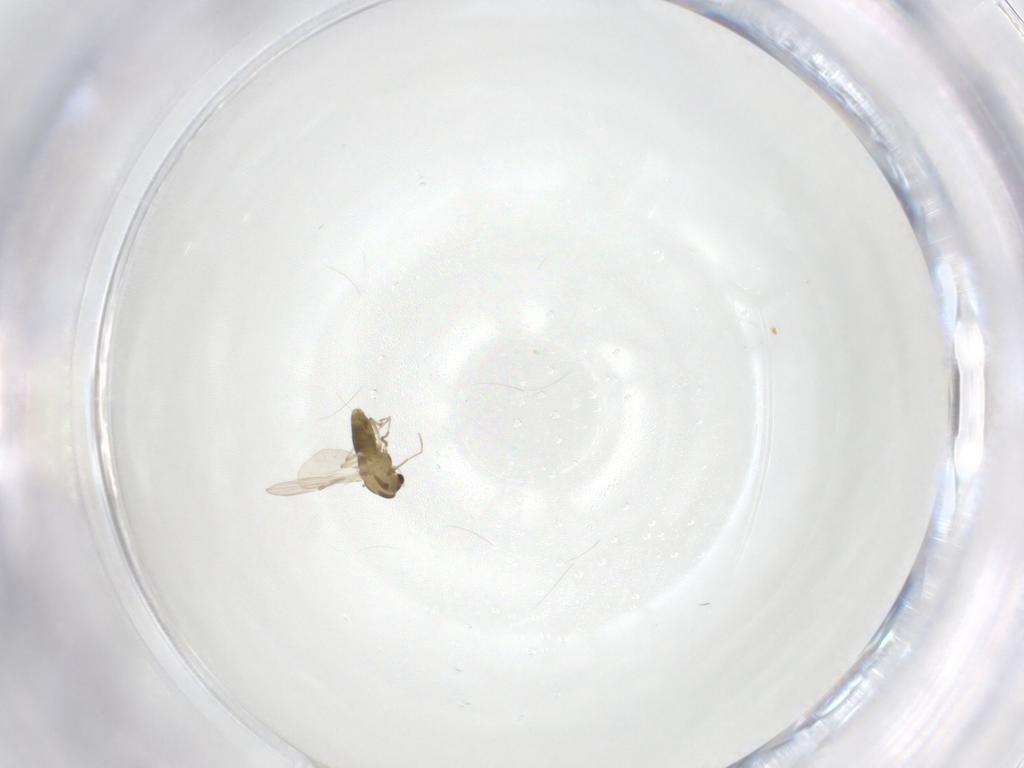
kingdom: Animalia
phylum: Arthropoda
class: Insecta
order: Diptera
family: Chironomidae
